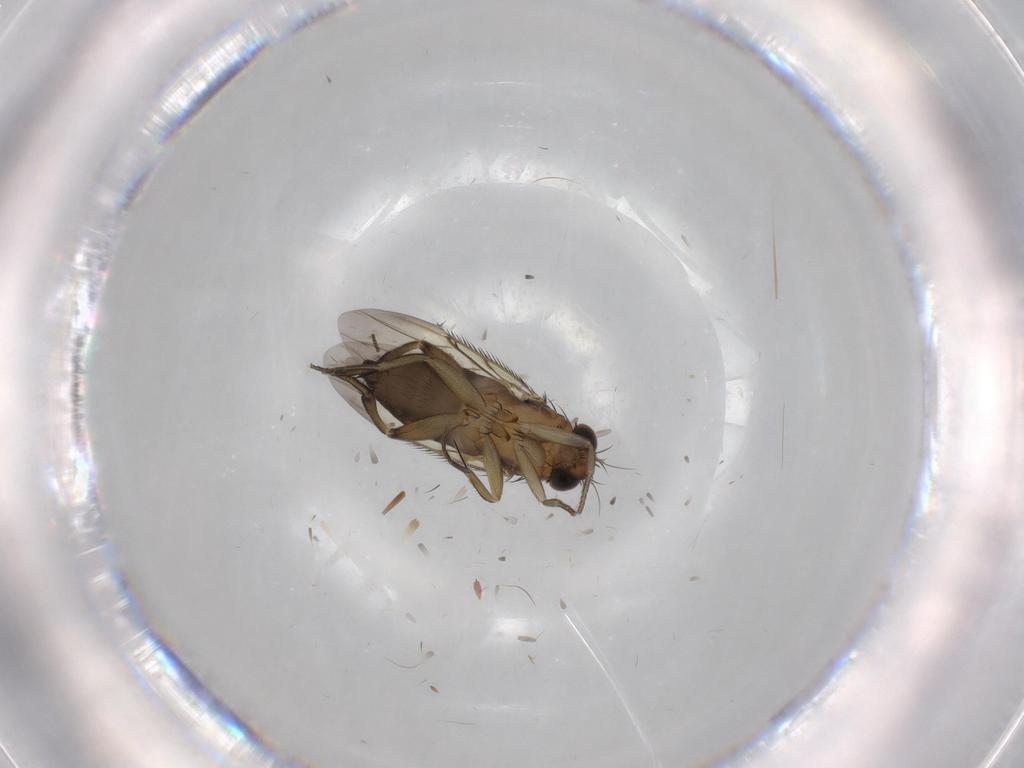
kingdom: Animalia
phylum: Arthropoda
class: Insecta
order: Diptera
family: Phoridae
